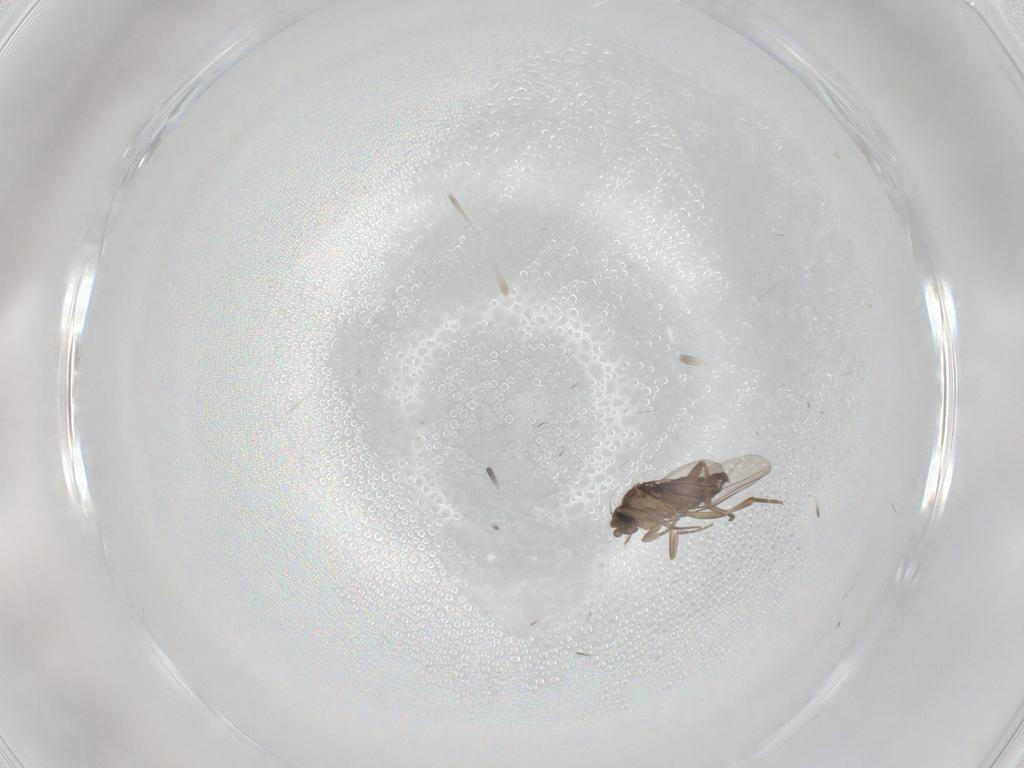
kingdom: Animalia
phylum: Arthropoda
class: Insecta
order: Diptera
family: Phoridae
